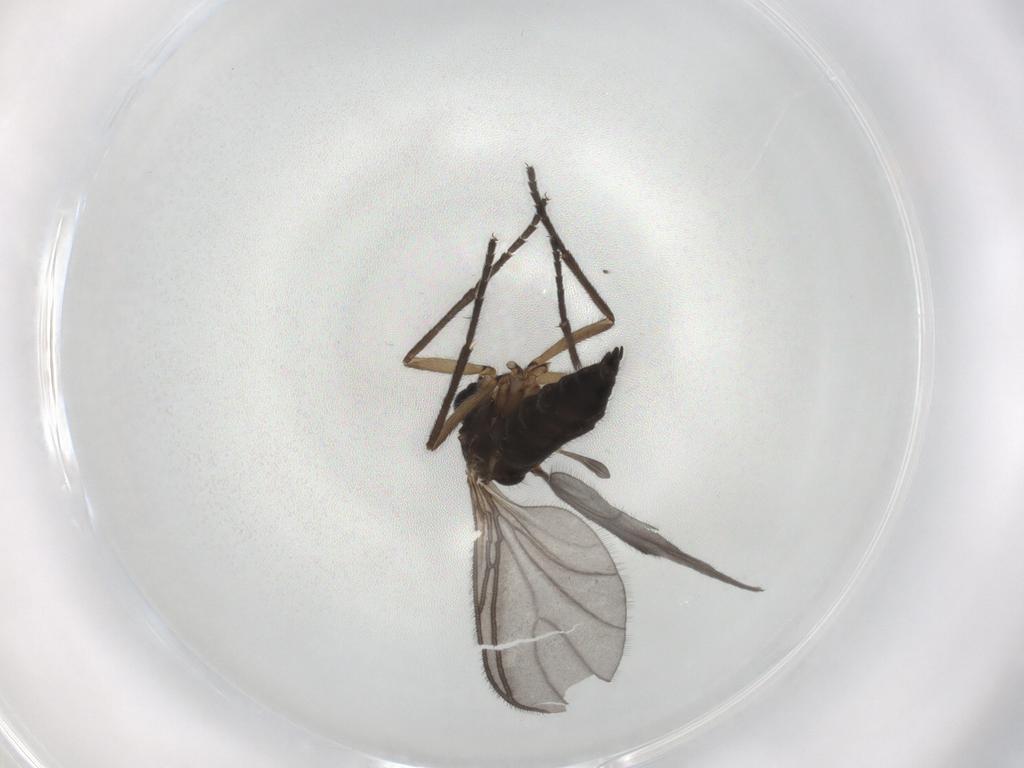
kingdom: Animalia
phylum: Arthropoda
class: Insecta
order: Diptera
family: Sciaridae
